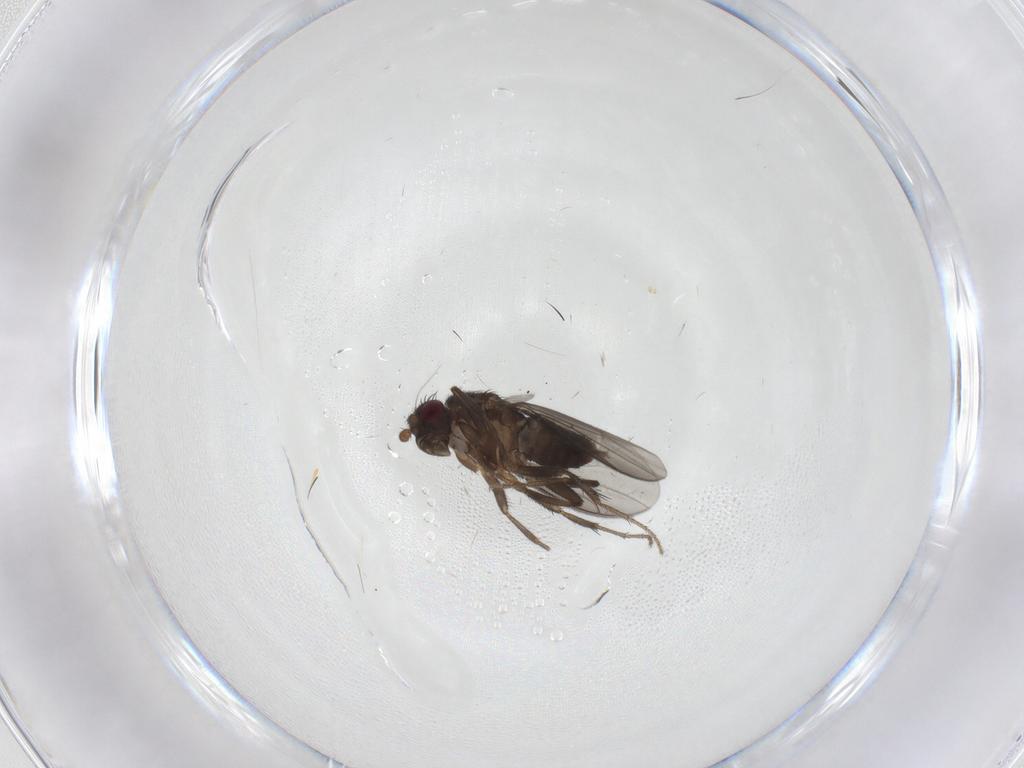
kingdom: Animalia
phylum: Arthropoda
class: Insecta
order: Diptera
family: Sphaeroceridae
